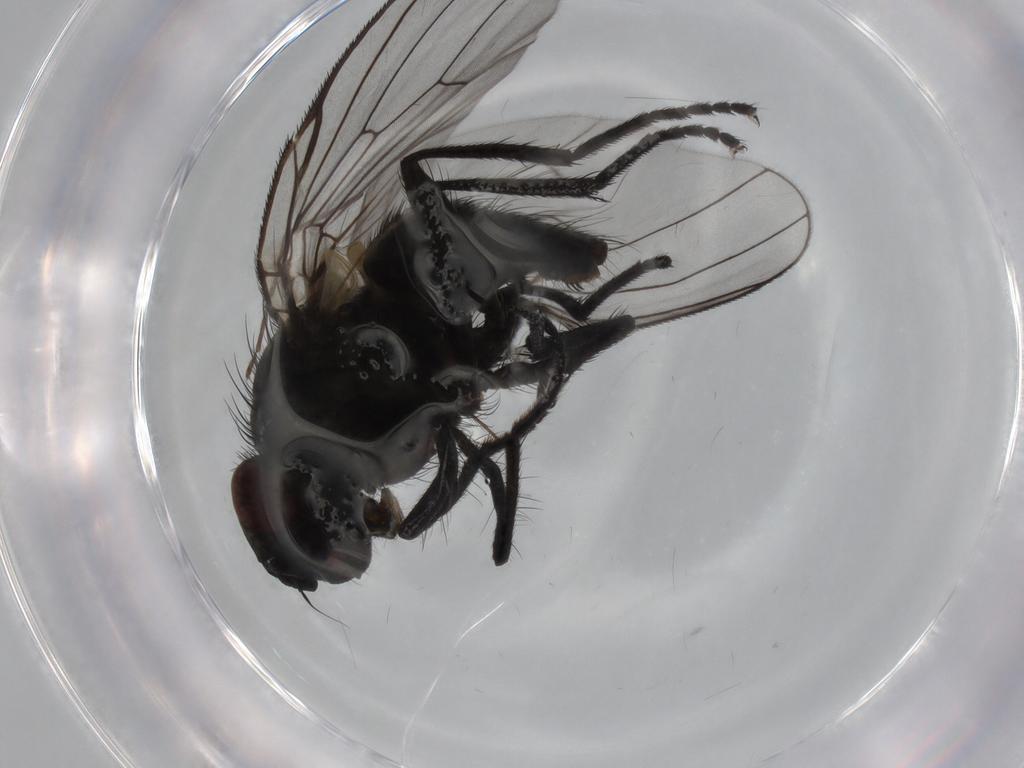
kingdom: Animalia
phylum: Arthropoda
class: Insecta
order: Diptera
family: Muscidae
